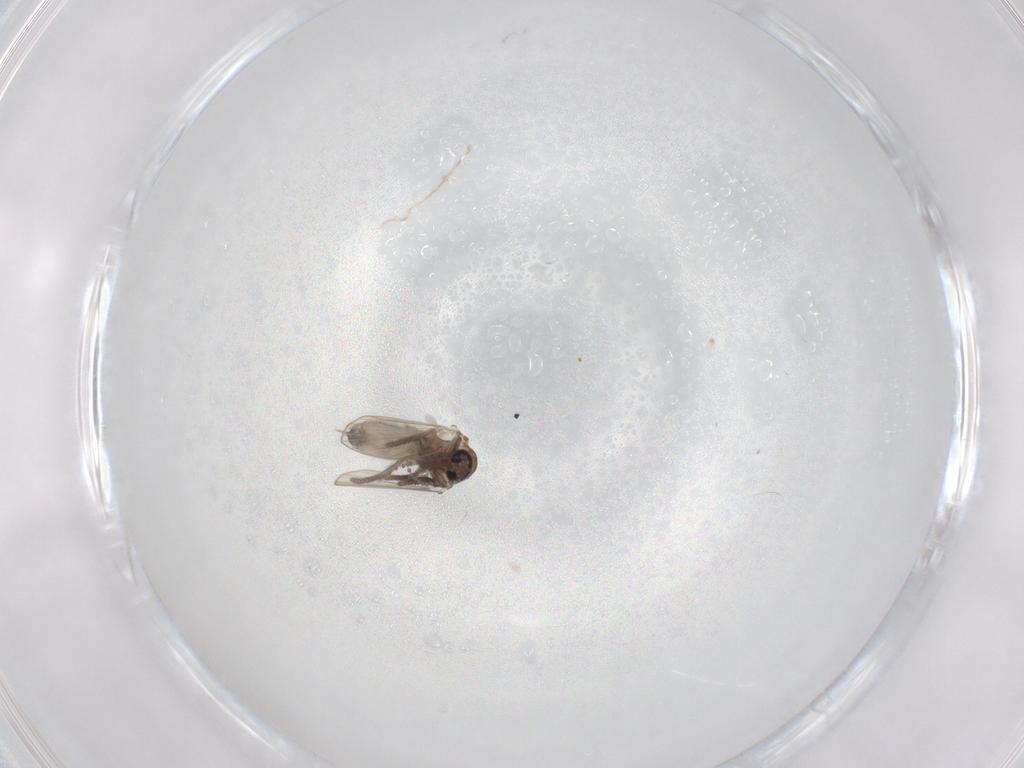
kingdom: Animalia
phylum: Arthropoda
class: Insecta
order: Diptera
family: Psychodidae
